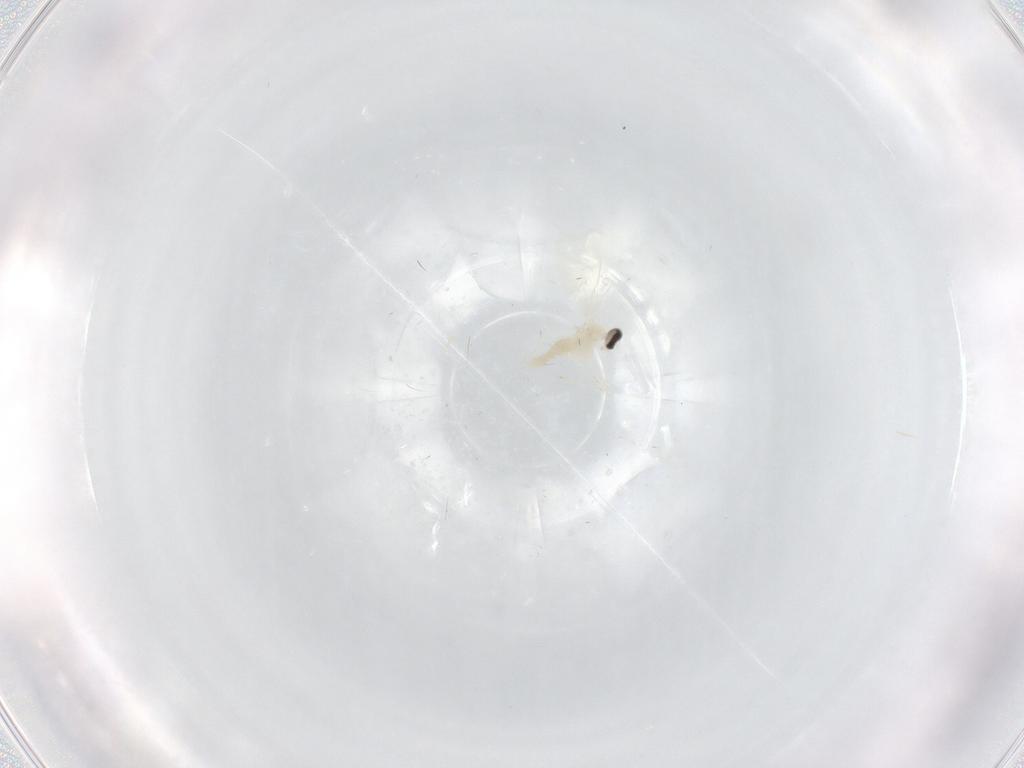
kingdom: Animalia
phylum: Arthropoda
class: Insecta
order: Diptera
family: Cecidomyiidae
